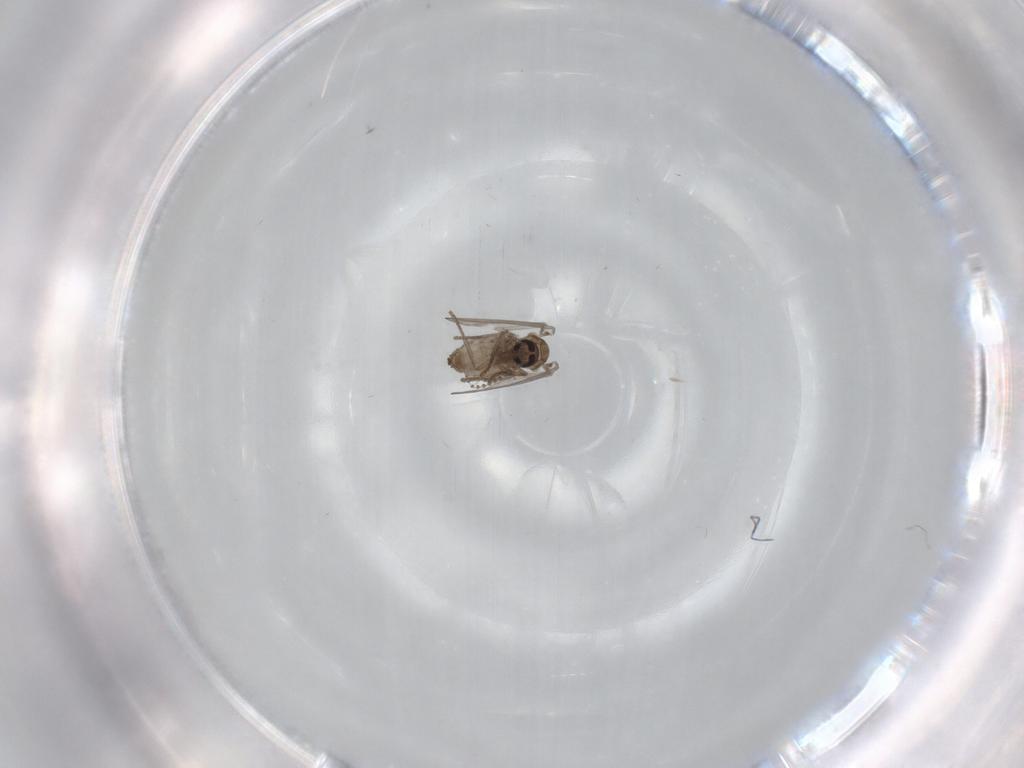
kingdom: Animalia
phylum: Arthropoda
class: Insecta
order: Diptera
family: Psychodidae
